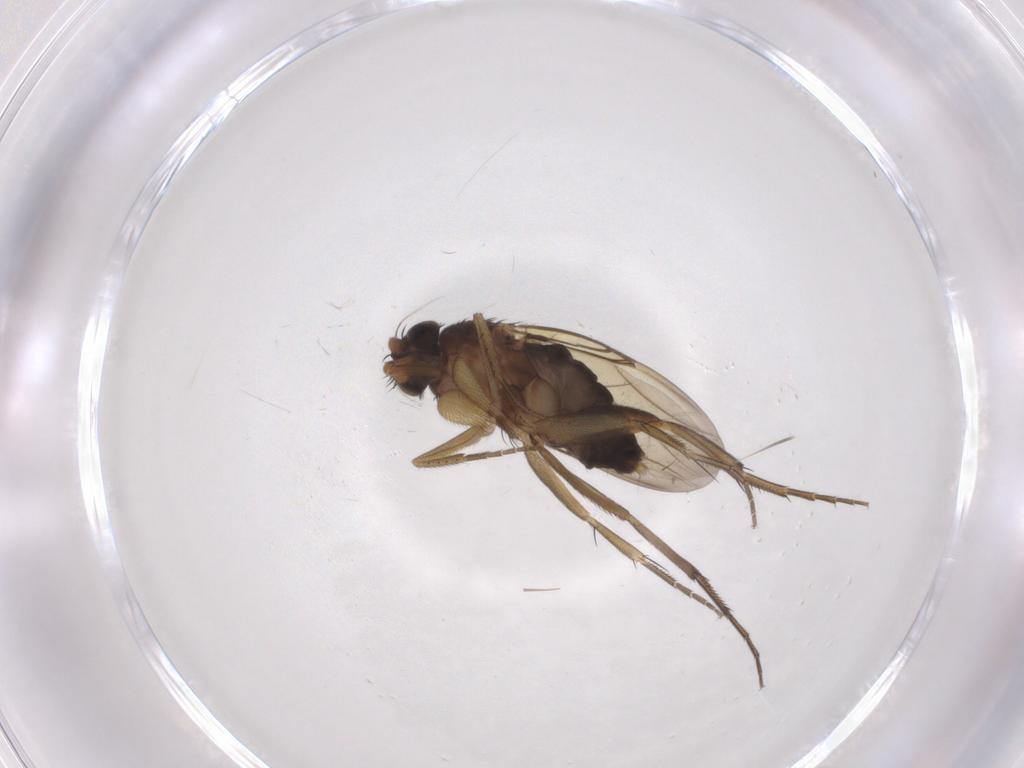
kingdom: Animalia
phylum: Arthropoda
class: Insecta
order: Diptera
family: Phoridae
